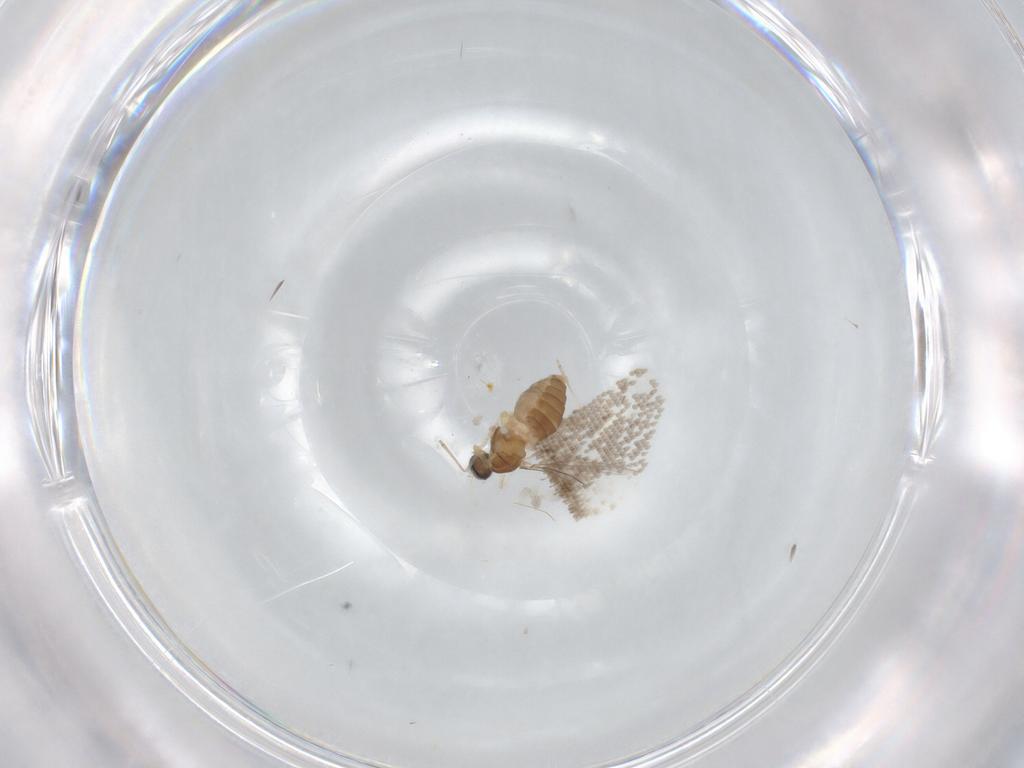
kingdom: Animalia
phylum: Arthropoda
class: Insecta
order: Diptera
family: Cecidomyiidae
